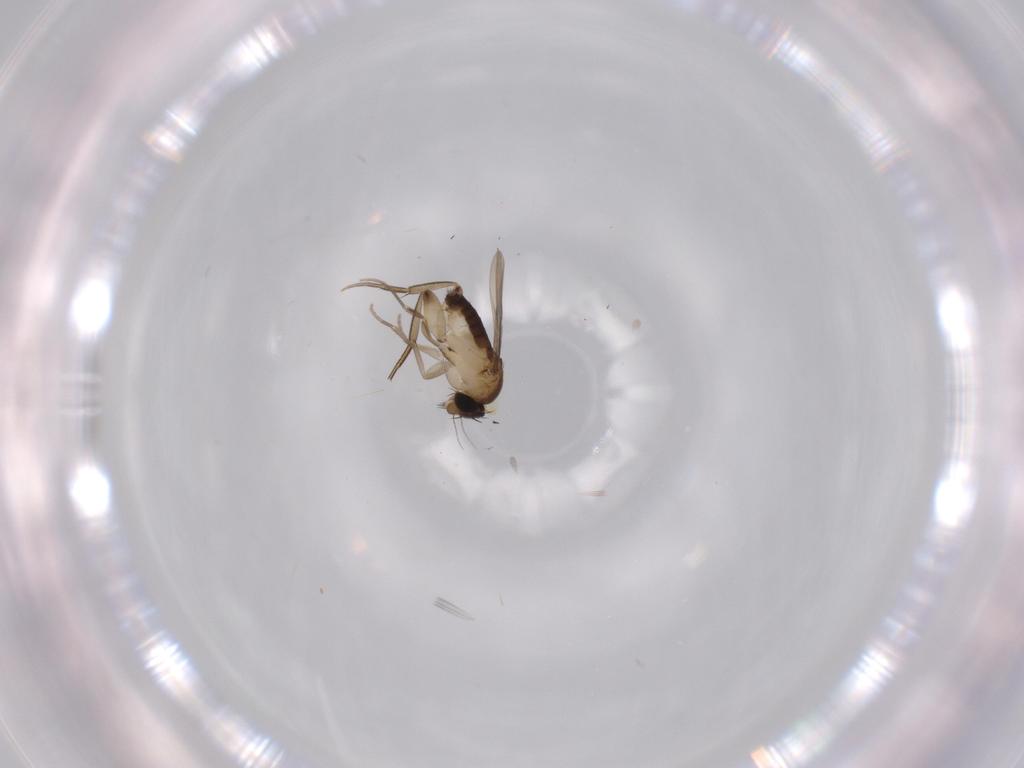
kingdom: Animalia
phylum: Arthropoda
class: Insecta
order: Diptera
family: Phoridae
